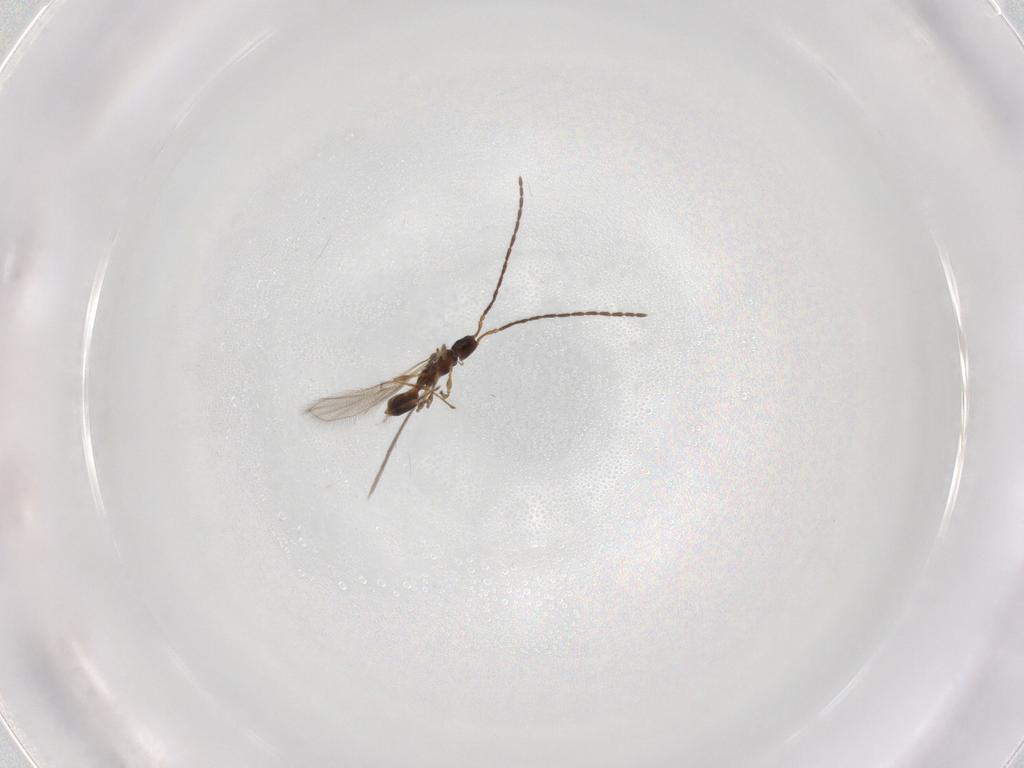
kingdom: Animalia
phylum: Arthropoda
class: Insecta
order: Hymenoptera
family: Diapriidae
